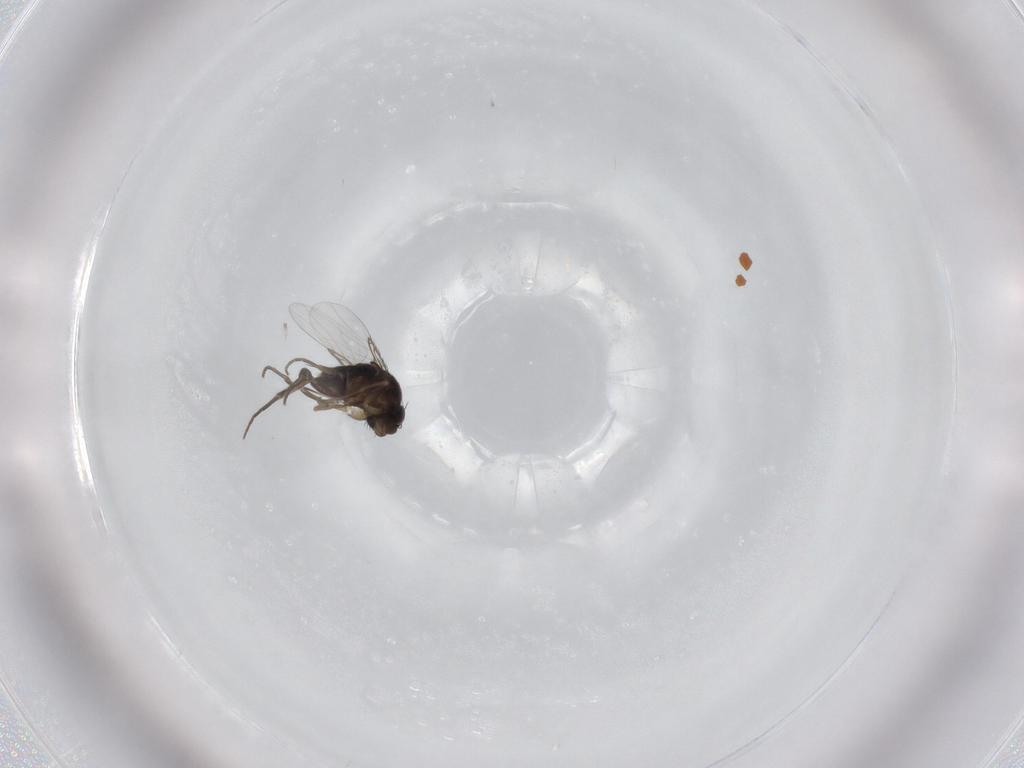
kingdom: Animalia
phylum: Arthropoda
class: Insecta
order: Diptera
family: Phoridae
